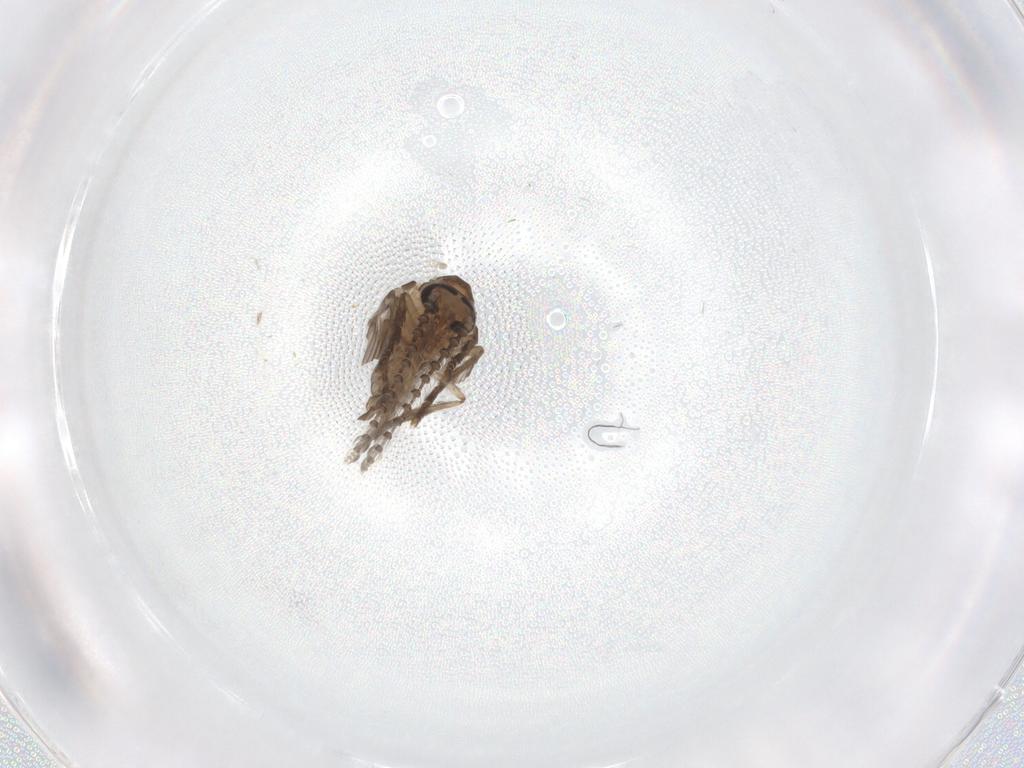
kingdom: Animalia
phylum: Arthropoda
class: Insecta
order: Diptera
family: Psychodidae
